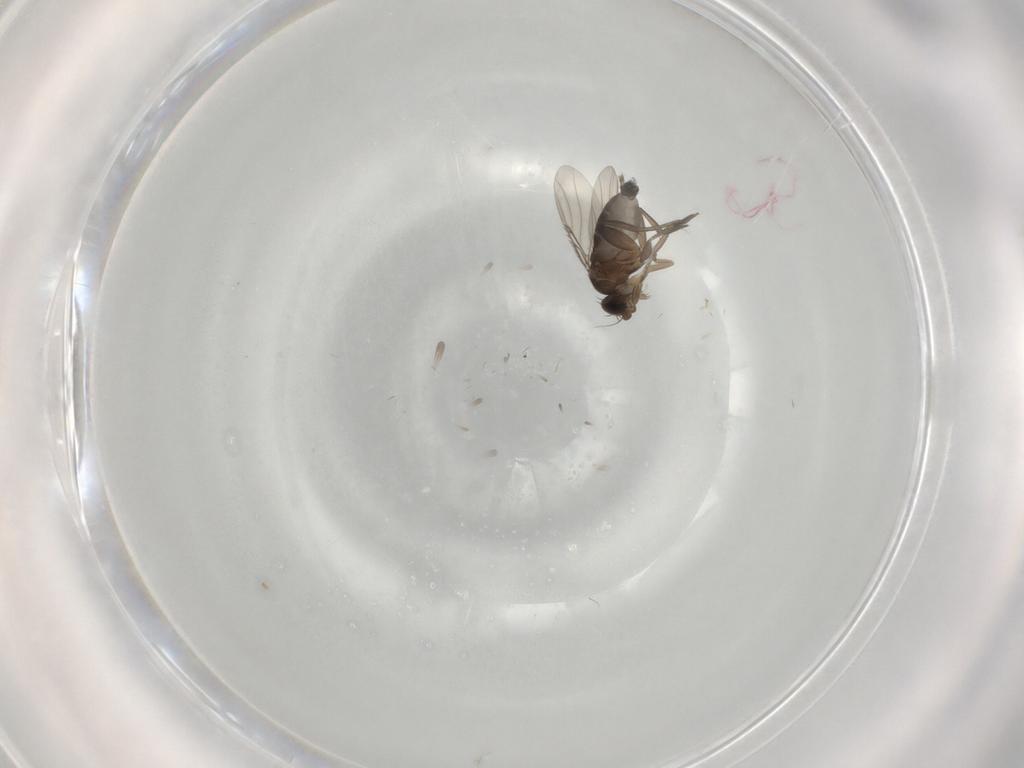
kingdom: Animalia
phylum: Arthropoda
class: Insecta
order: Diptera
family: Phoridae
